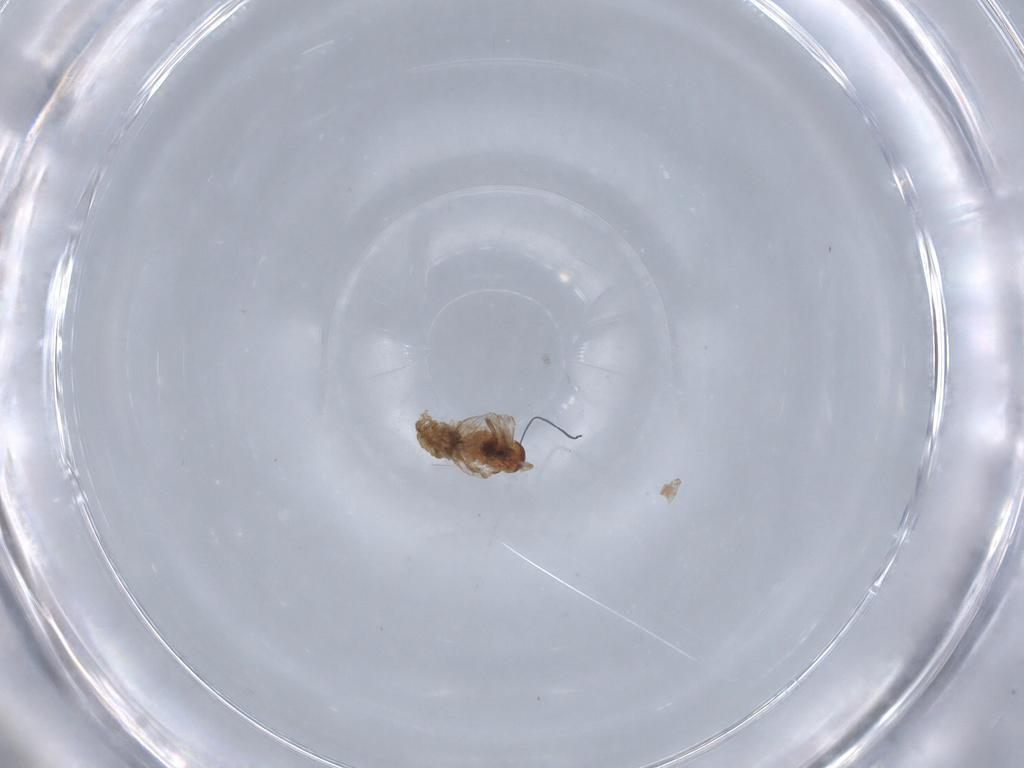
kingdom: Animalia
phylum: Arthropoda
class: Insecta
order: Diptera
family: Psychodidae
